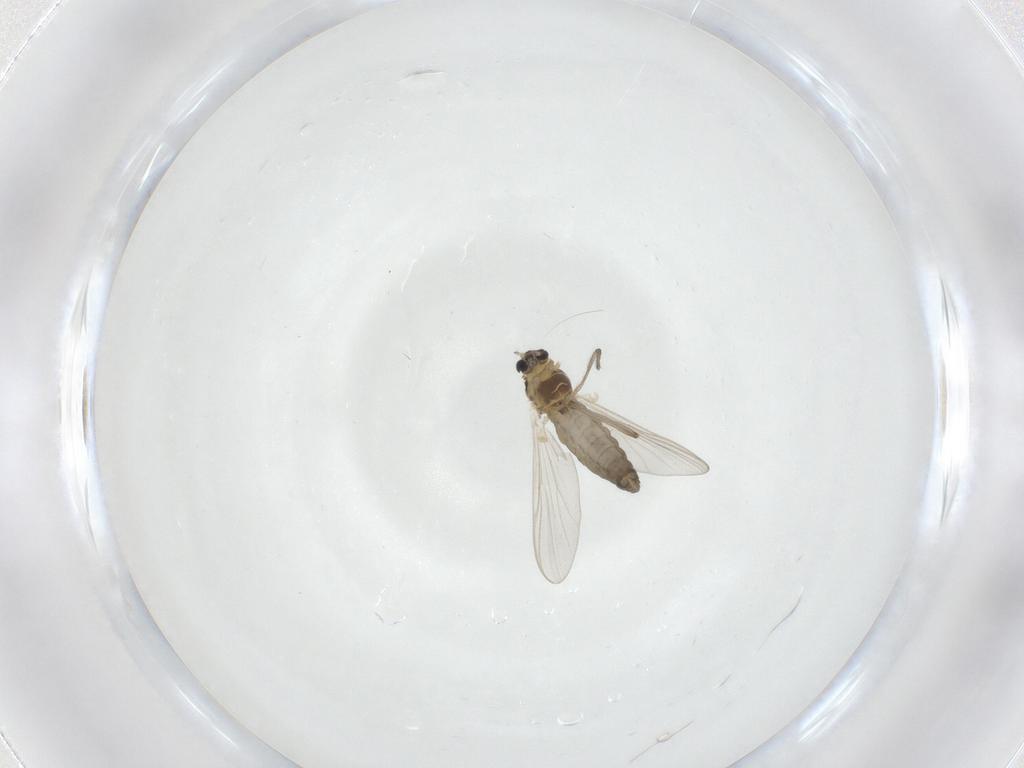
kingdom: Animalia
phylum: Arthropoda
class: Insecta
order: Diptera
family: Chironomidae
